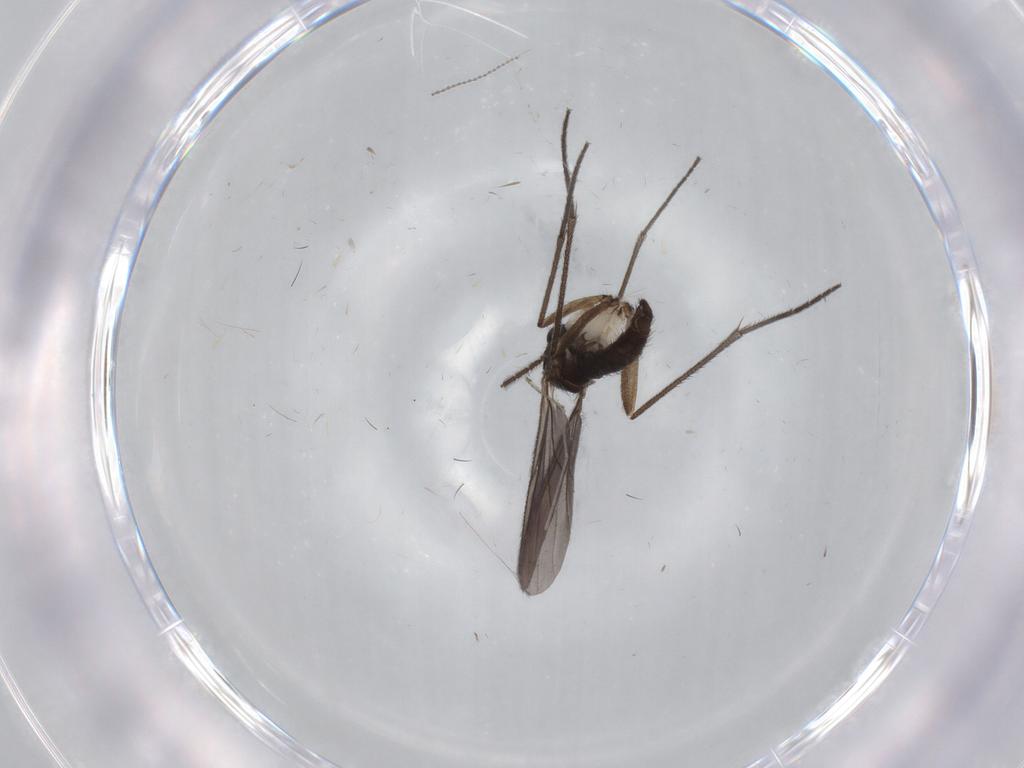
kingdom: Animalia
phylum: Arthropoda
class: Insecta
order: Diptera
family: Sciaridae
